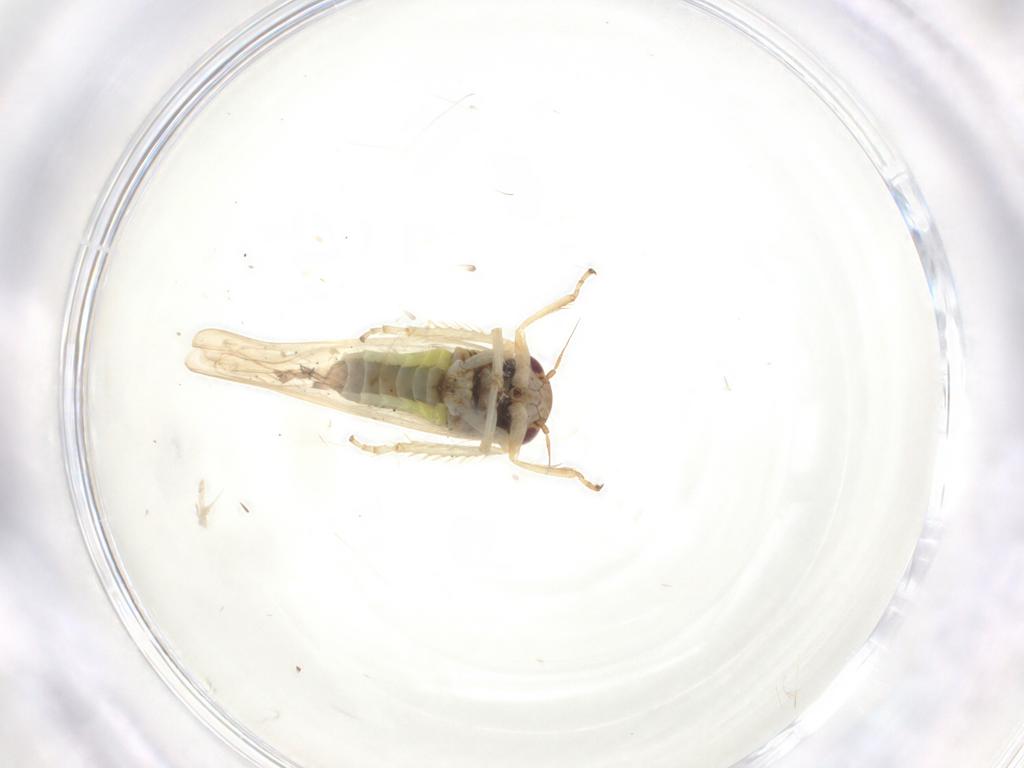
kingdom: Animalia
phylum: Arthropoda
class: Insecta
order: Hemiptera
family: Cicadellidae
